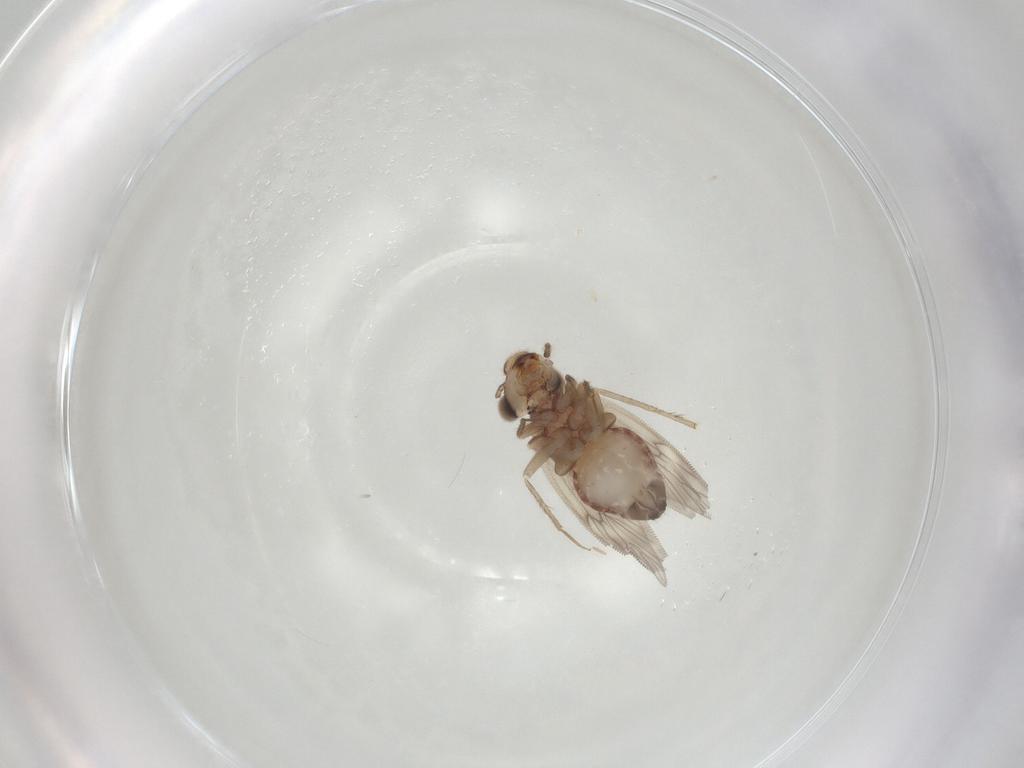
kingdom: Animalia
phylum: Arthropoda
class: Insecta
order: Psocodea
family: Lepidopsocidae
